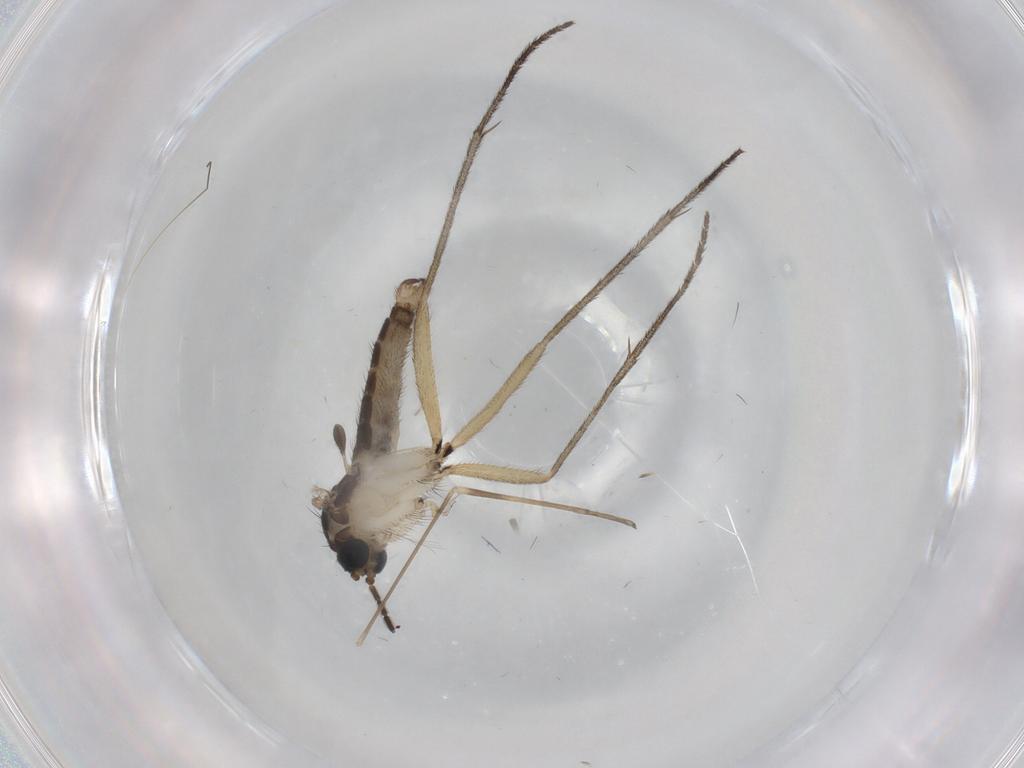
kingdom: Animalia
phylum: Arthropoda
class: Insecta
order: Diptera
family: Sciaridae
